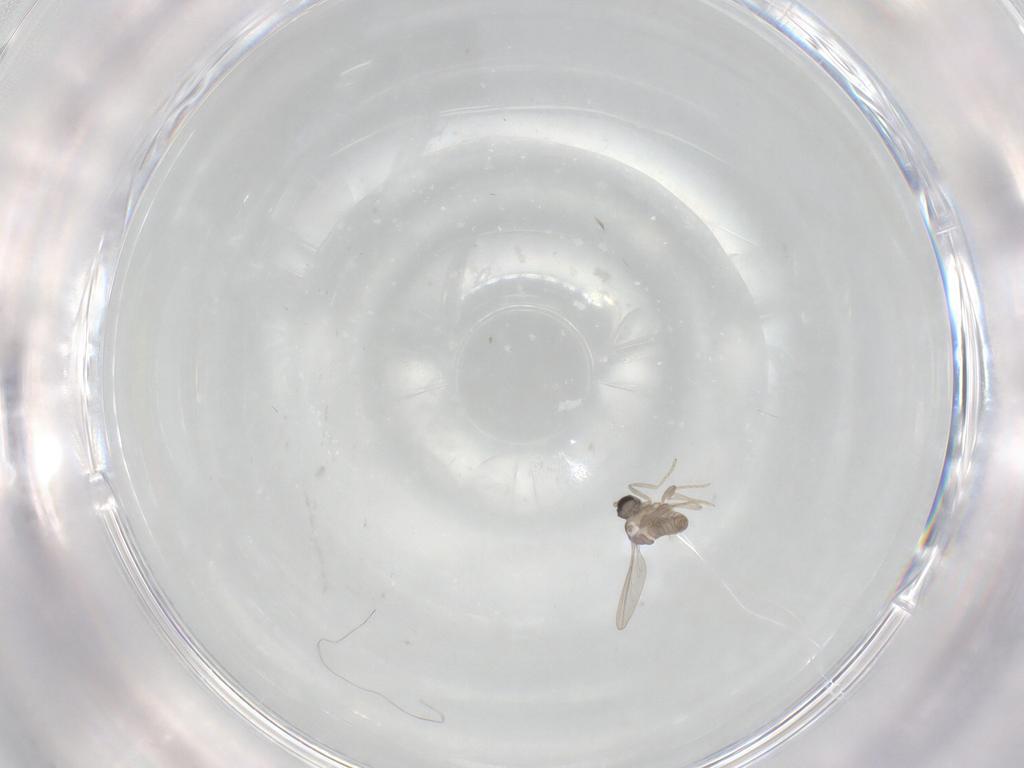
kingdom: Animalia
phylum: Arthropoda
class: Insecta
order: Diptera
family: Cecidomyiidae
